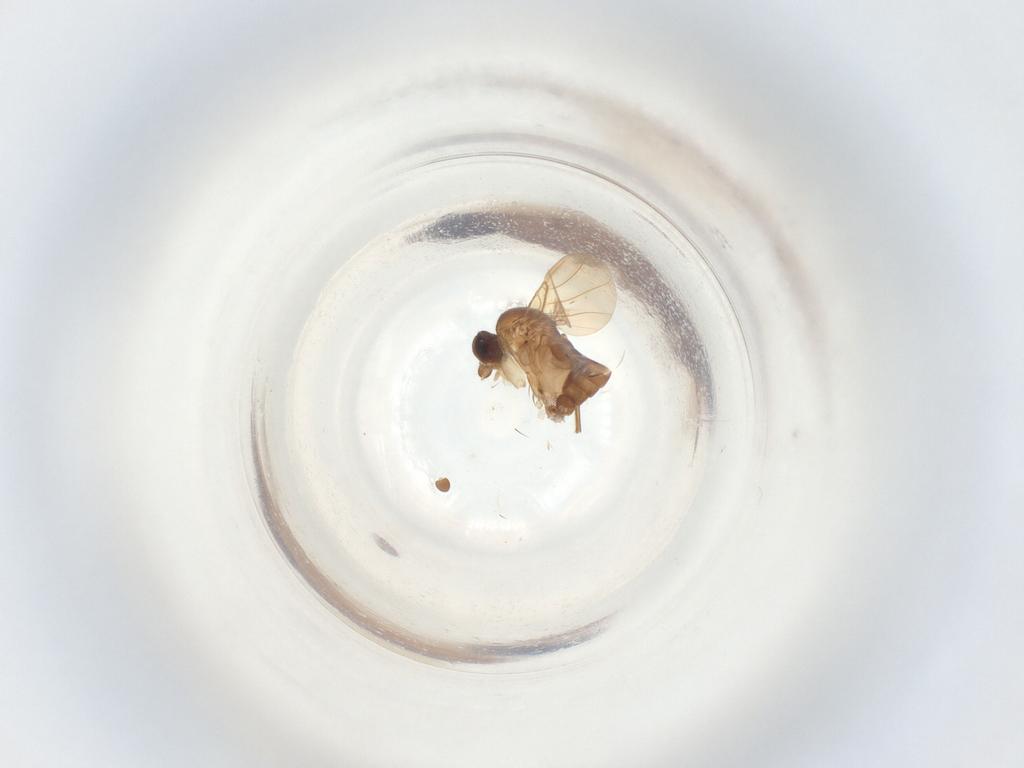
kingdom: Animalia
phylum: Arthropoda
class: Insecta
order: Diptera
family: Phoridae
